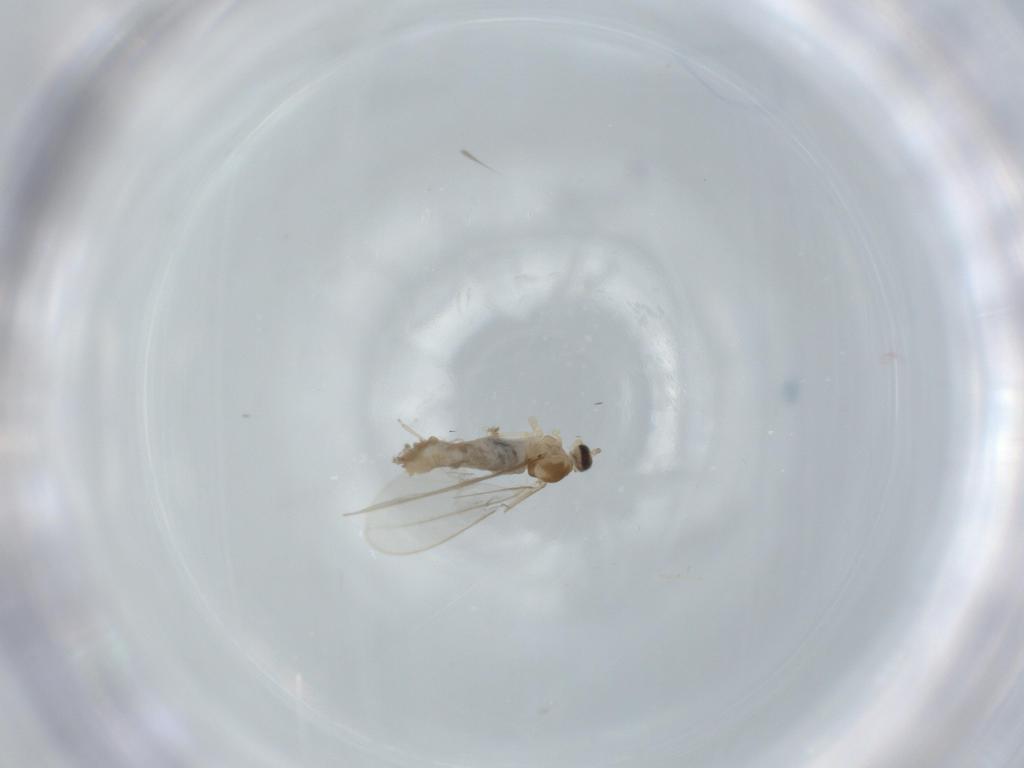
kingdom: Animalia
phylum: Arthropoda
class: Insecta
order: Diptera
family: Cecidomyiidae
